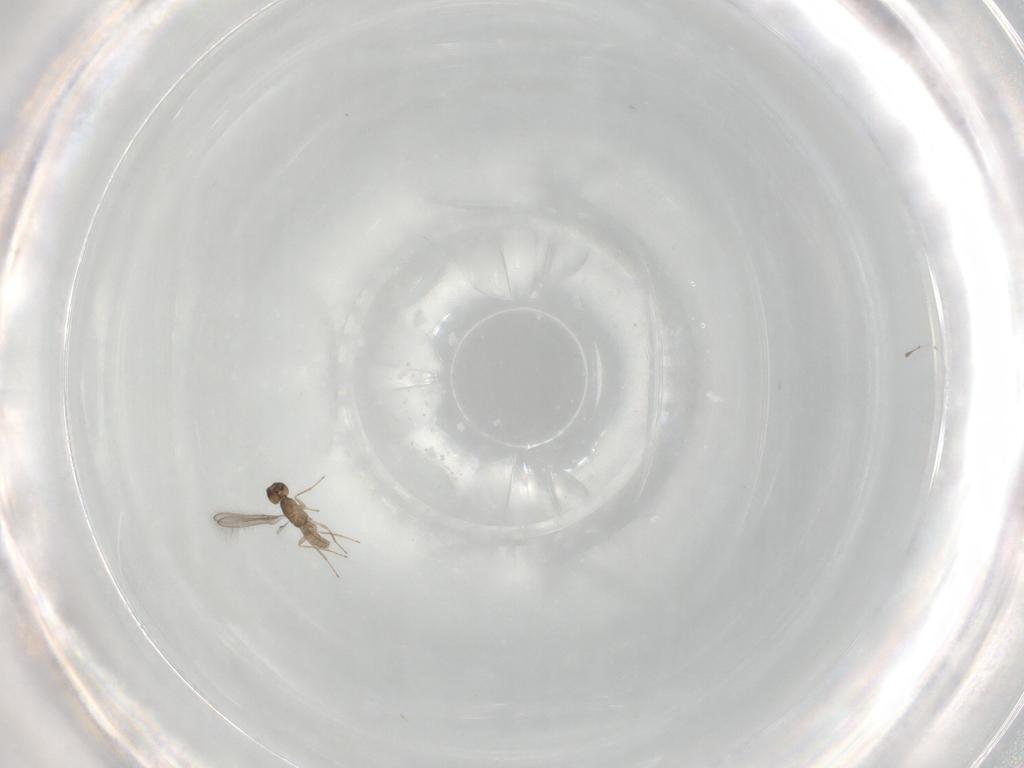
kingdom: Animalia
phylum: Arthropoda
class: Insecta
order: Hymenoptera
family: Mymaridae
